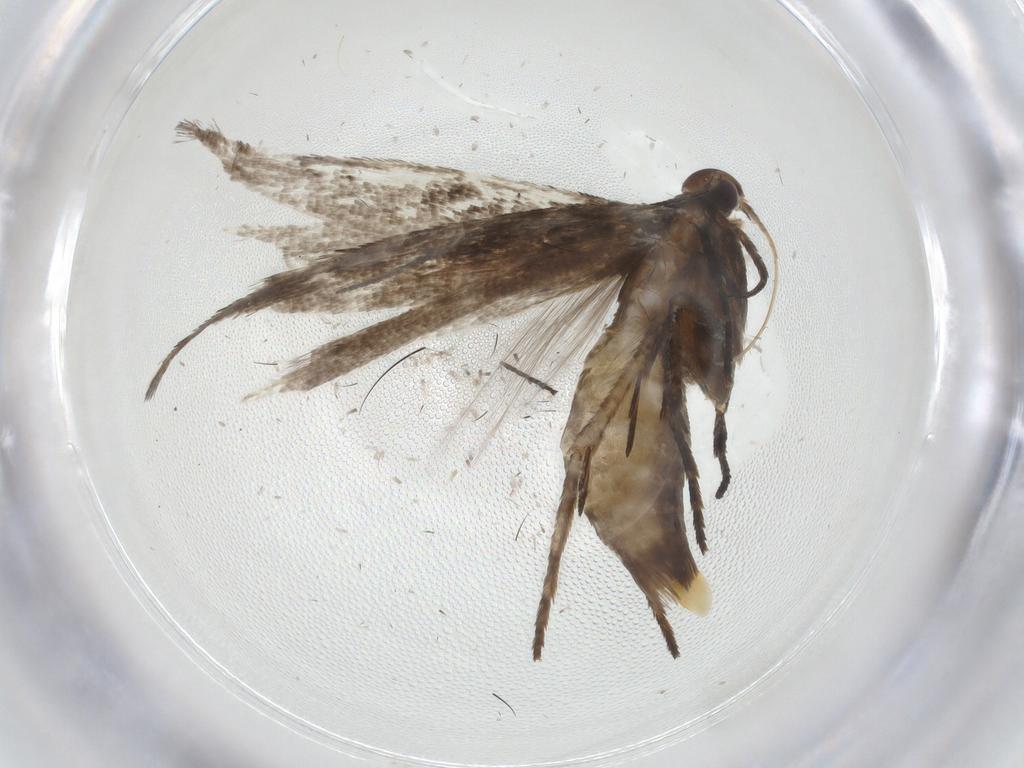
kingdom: Animalia
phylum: Arthropoda
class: Insecta
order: Lepidoptera
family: Gelechiidae
